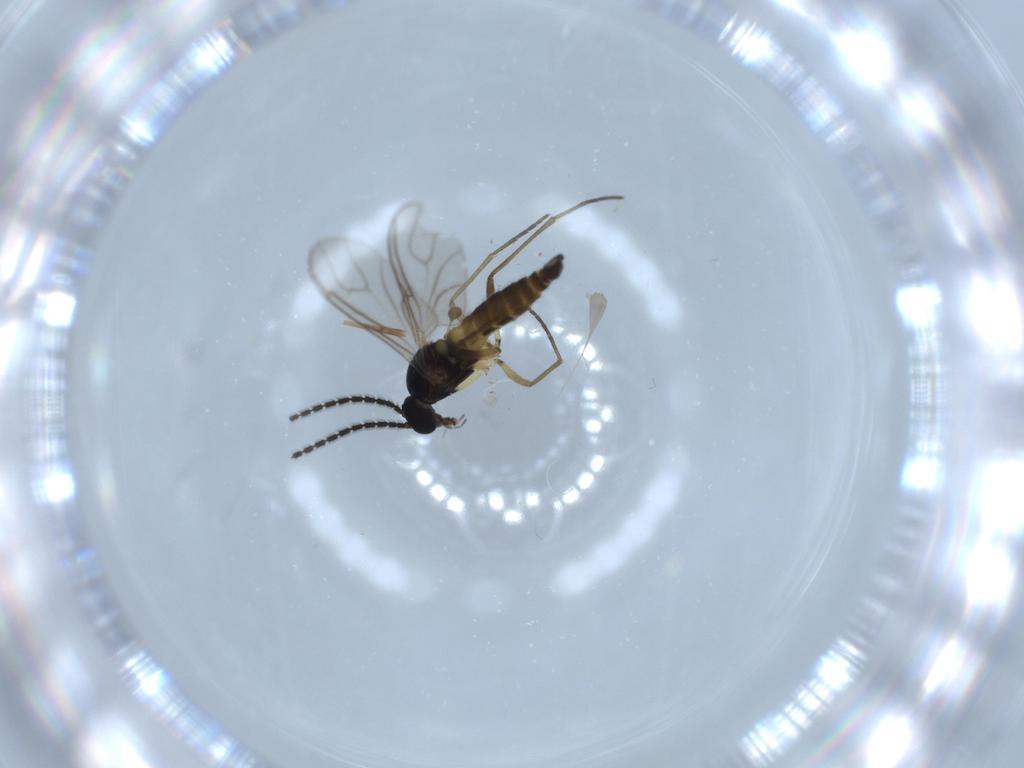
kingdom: Animalia
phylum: Arthropoda
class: Insecta
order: Diptera
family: Sciaridae
